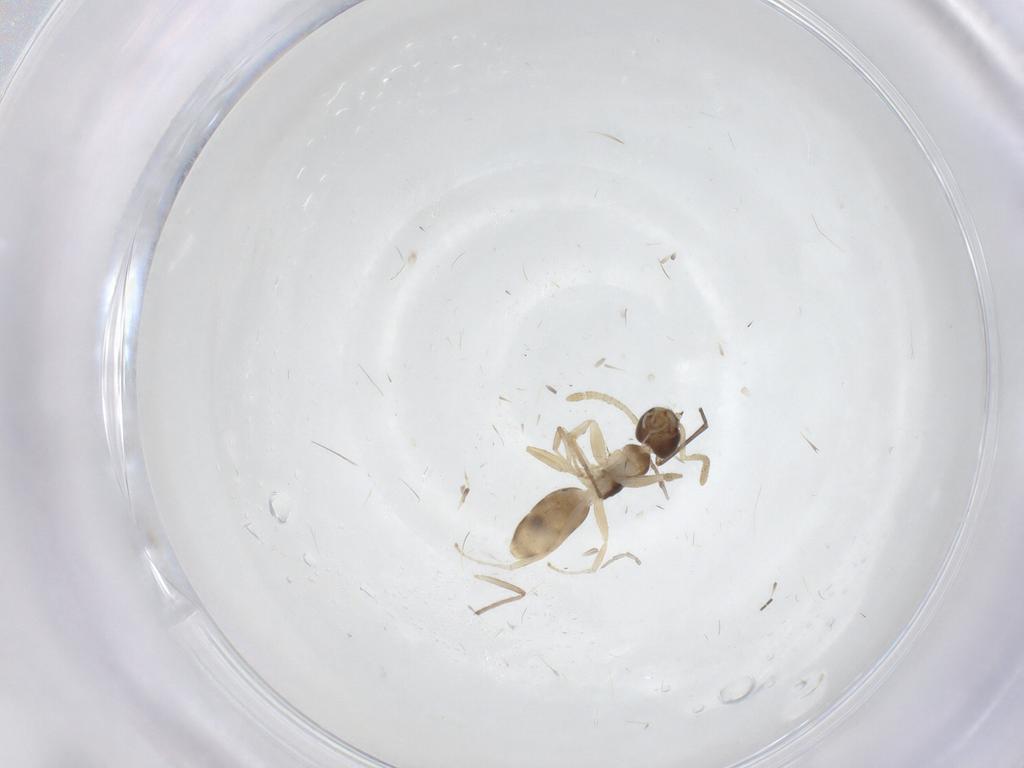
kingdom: Animalia
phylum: Arthropoda
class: Insecta
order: Hymenoptera
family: Formicidae
